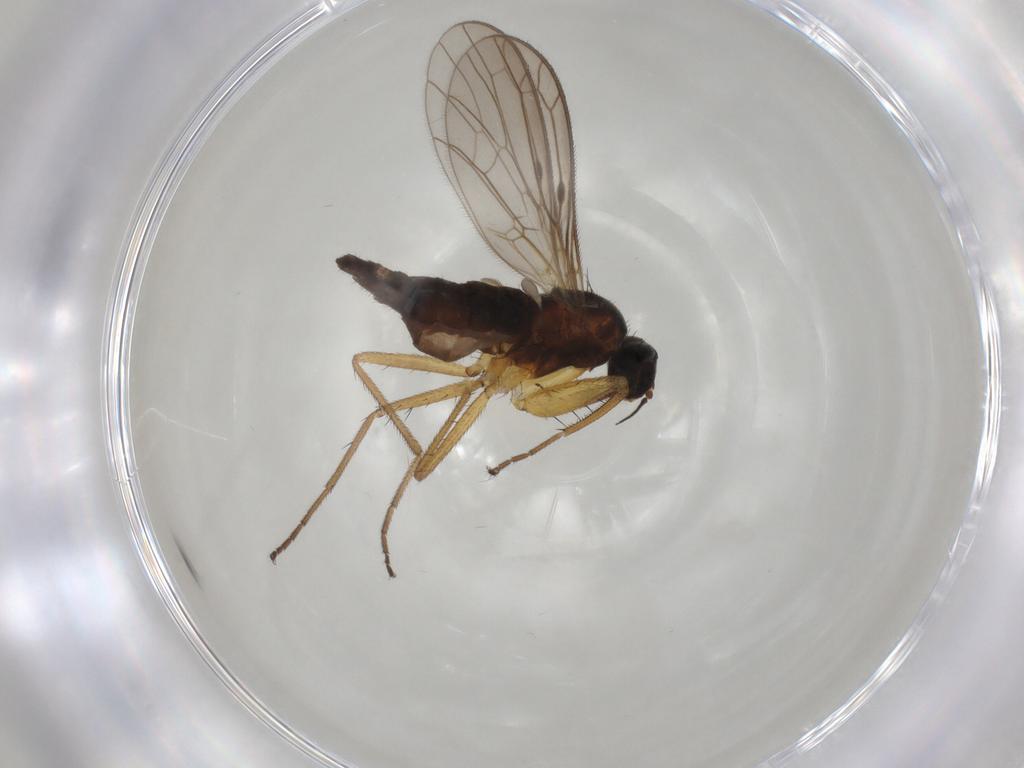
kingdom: Animalia
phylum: Arthropoda
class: Insecta
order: Diptera
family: Empididae
